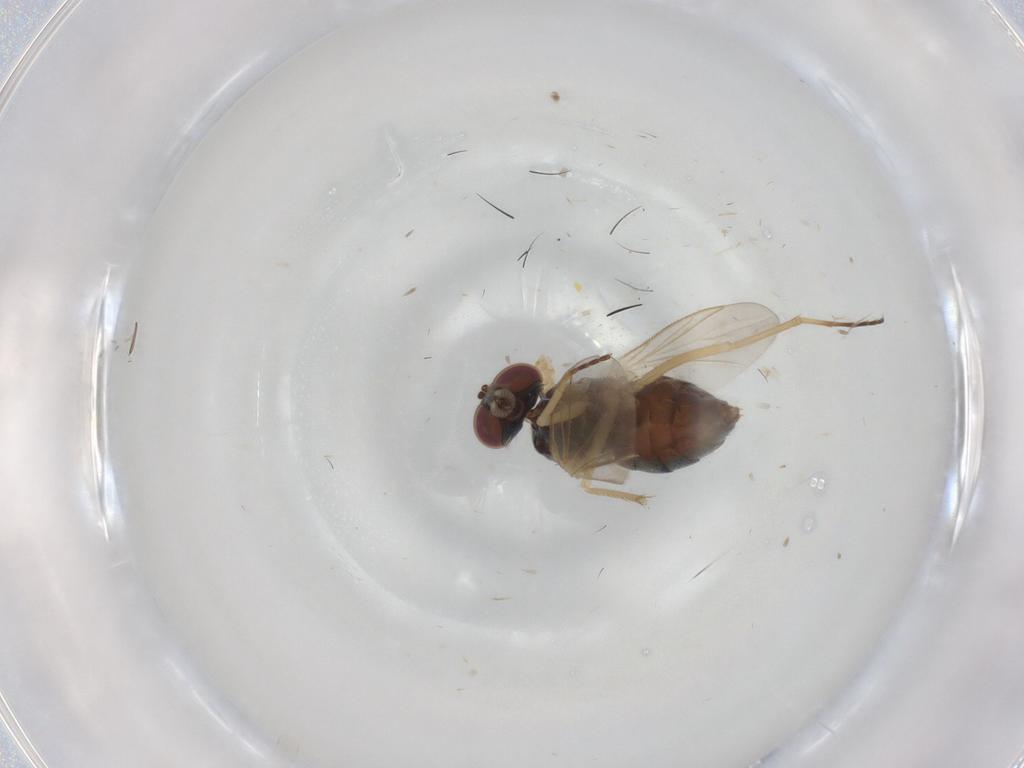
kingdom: Animalia
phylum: Arthropoda
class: Insecta
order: Diptera
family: Dolichopodidae
